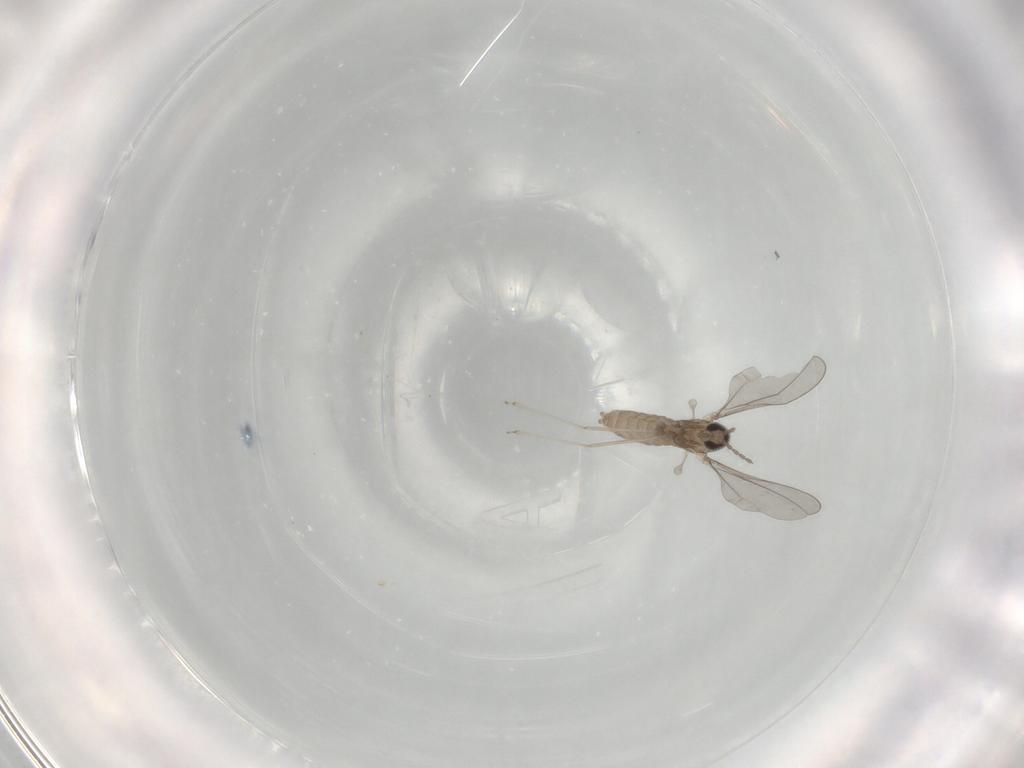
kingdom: Animalia
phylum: Arthropoda
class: Insecta
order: Diptera
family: Cecidomyiidae
